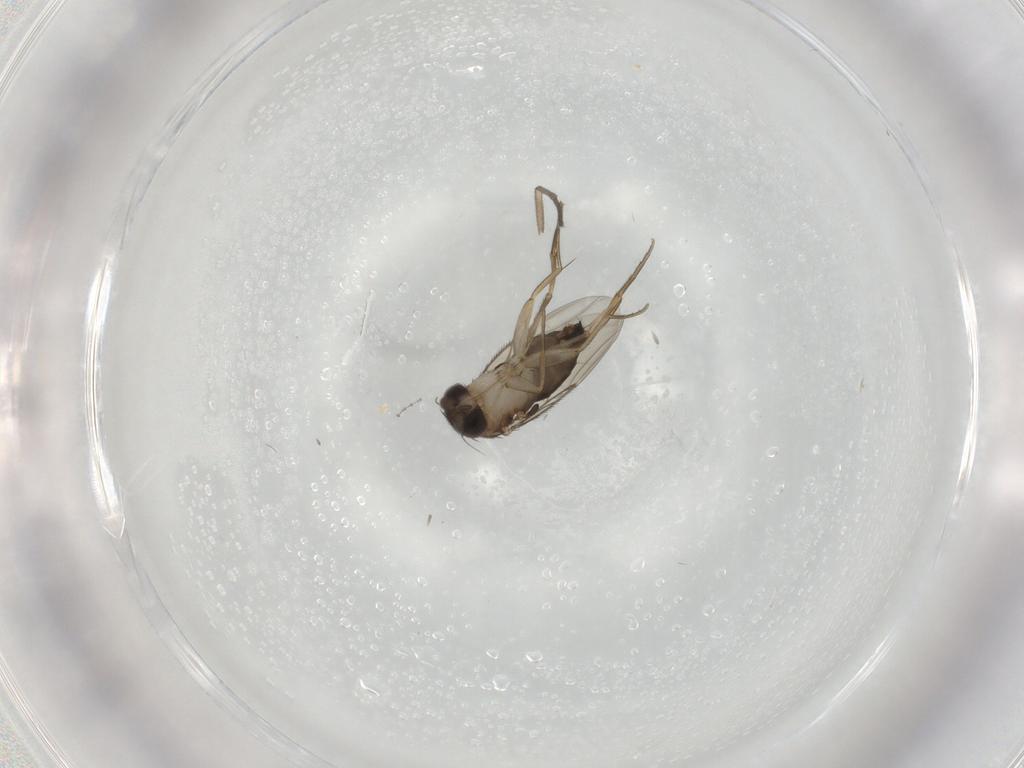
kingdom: Animalia
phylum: Arthropoda
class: Insecta
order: Diptera
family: Sciaridae
